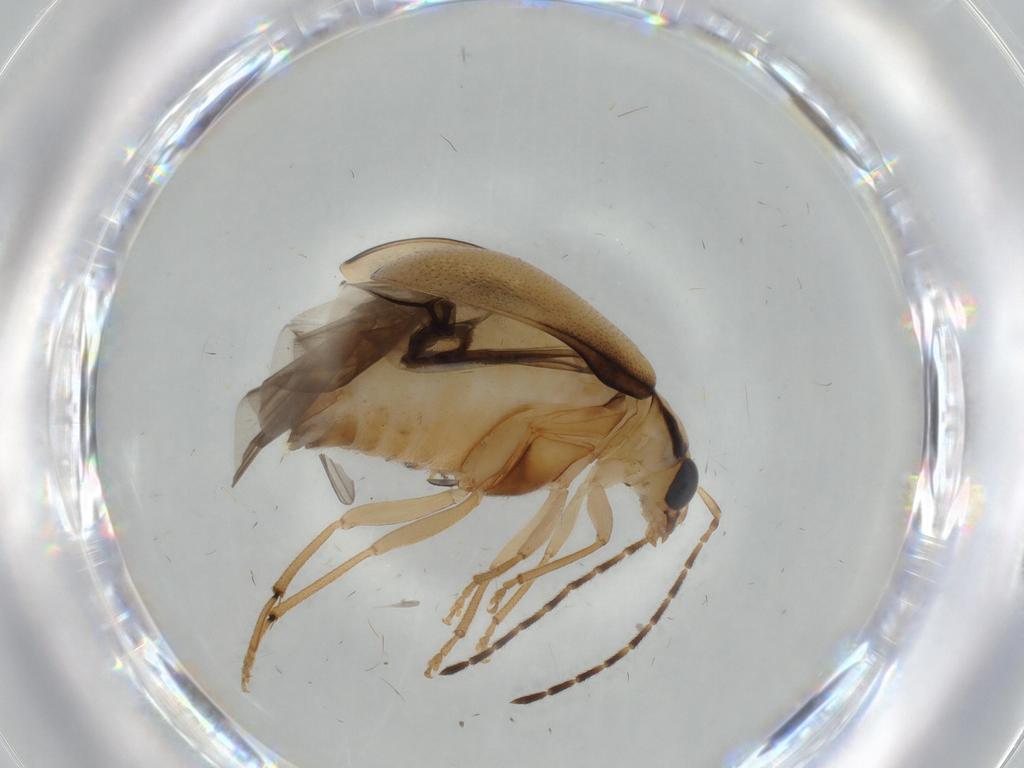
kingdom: Animalia
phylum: Arthropoda
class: Insecta
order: Coleoptera
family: Chrysomelidae
